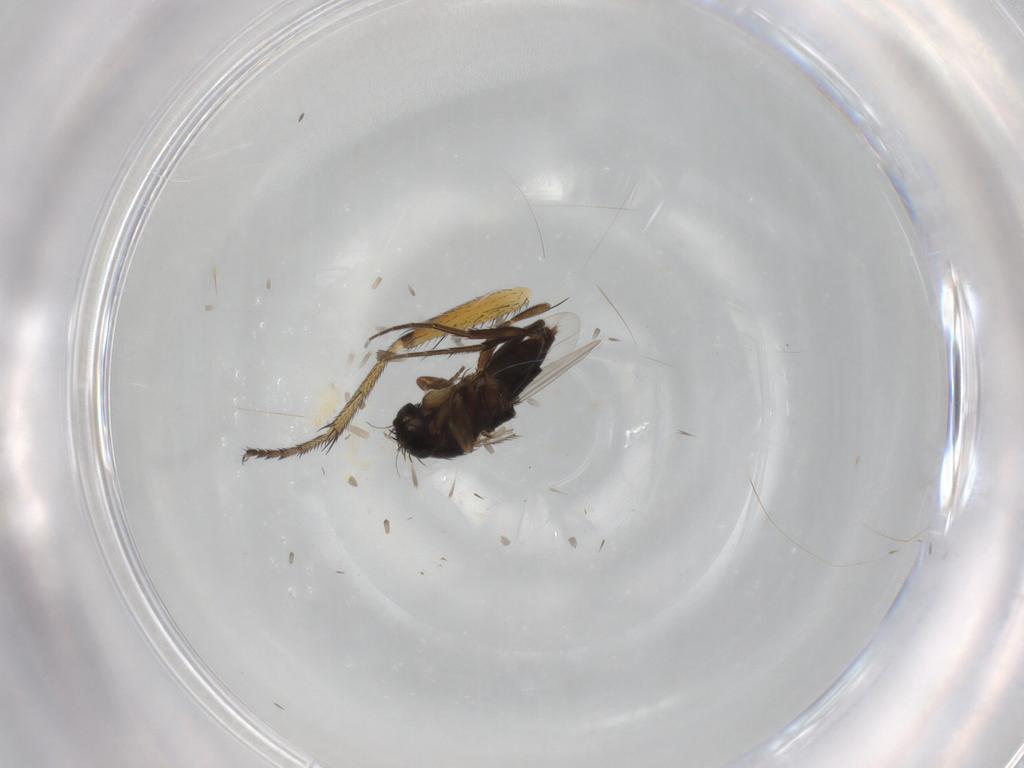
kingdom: Animalia
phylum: Arthropoda
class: Insecta
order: Diptera
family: Phoridae
